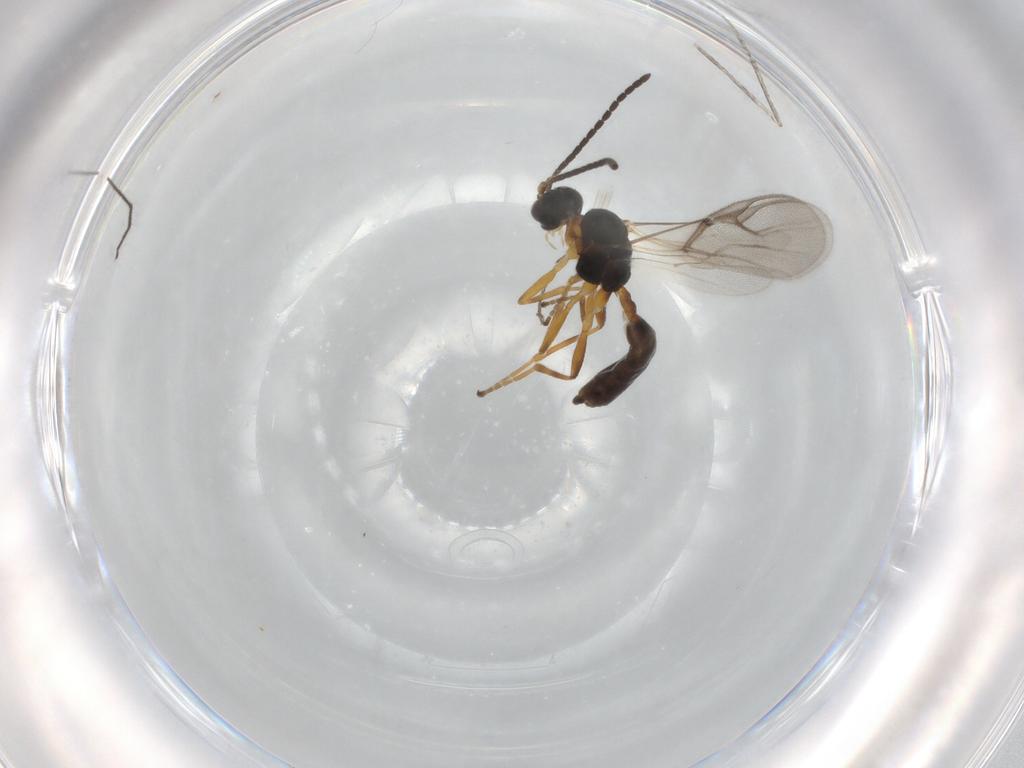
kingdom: Animalia
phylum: Arthropoda
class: Insecta
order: Hymenoptera
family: Braconidae
